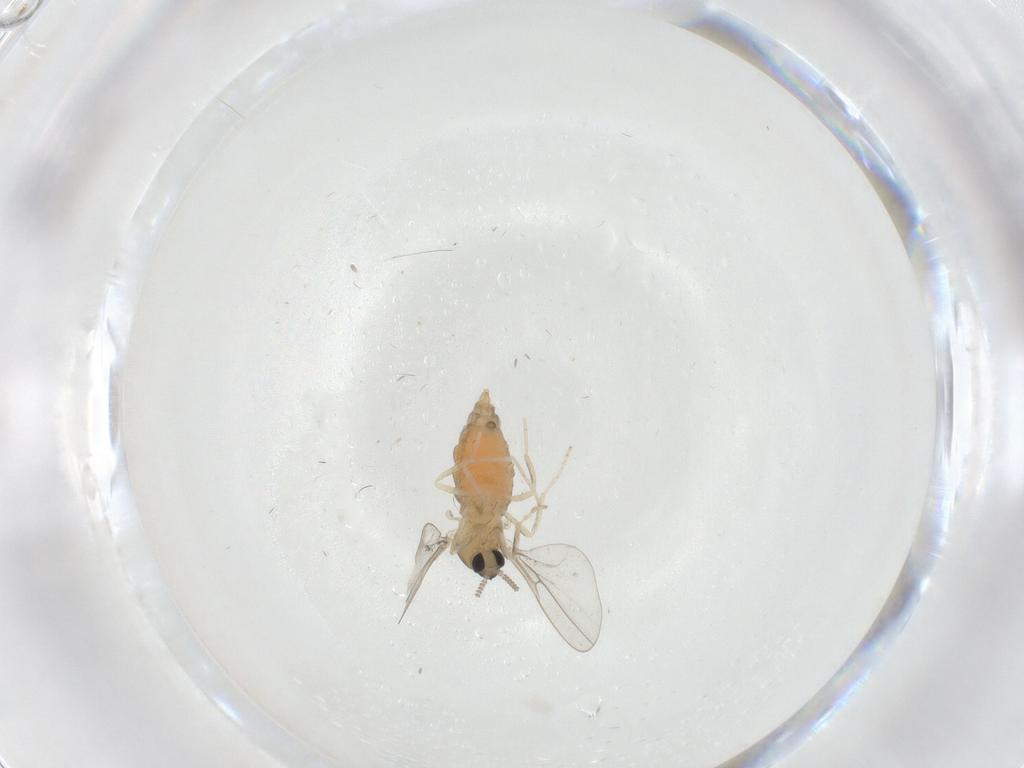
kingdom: Animalia
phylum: Arthropoda
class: Insecta
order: Diptera
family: Cecidomyiidae
